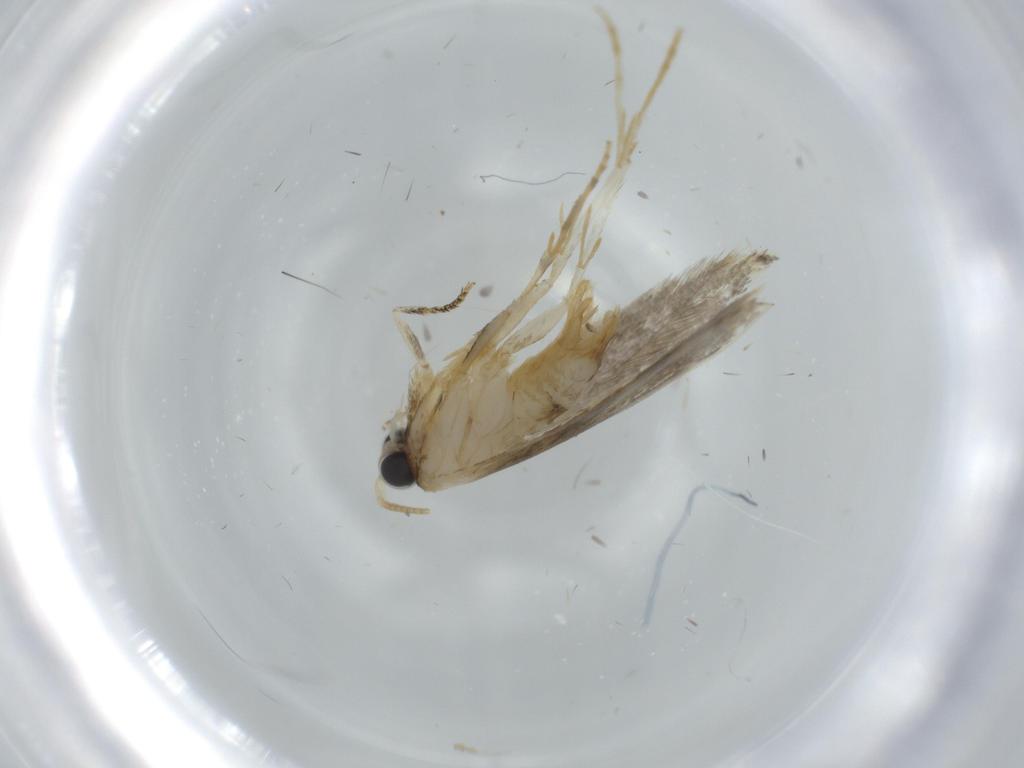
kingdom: Animalia
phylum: Arthropoda
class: Insecta
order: Lepidoptera
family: Tineidae
